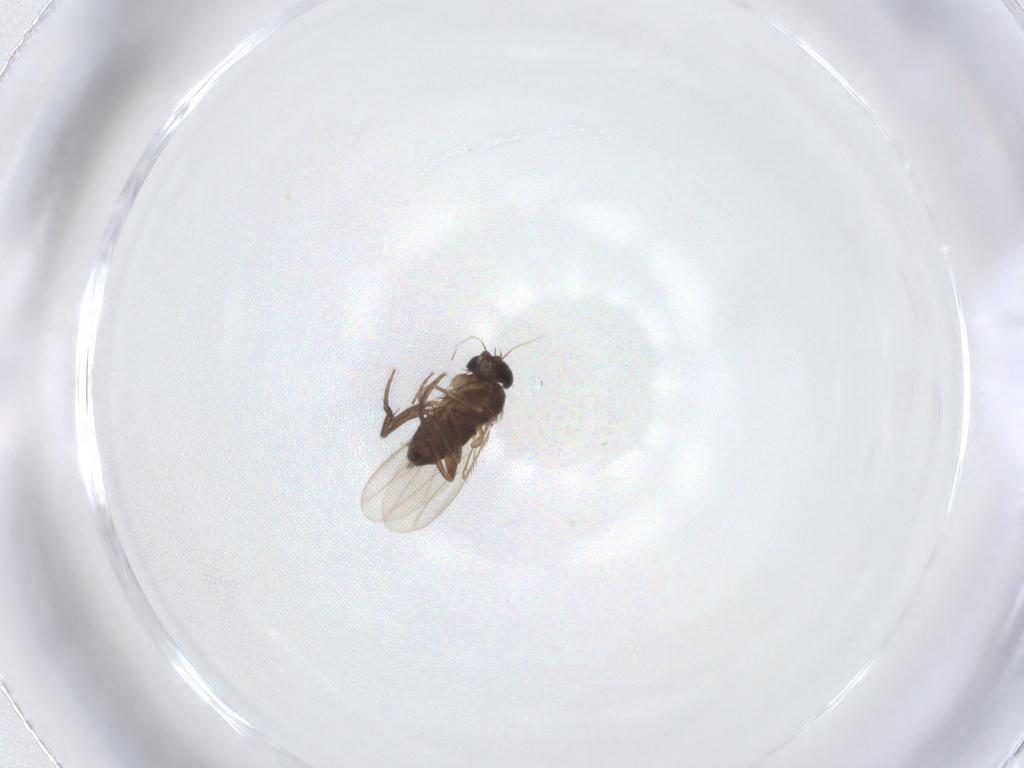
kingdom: Animalia
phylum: Arthropoda
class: Insecta
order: Diptera
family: Phoridae
